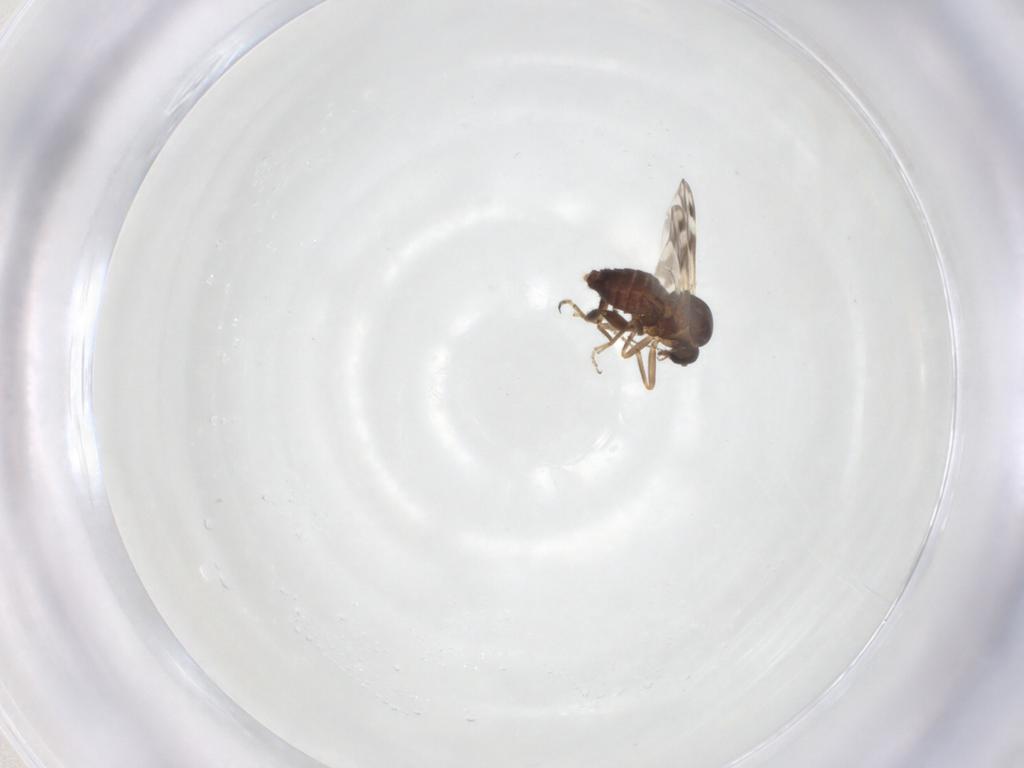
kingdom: Animalia
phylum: Arthropoda
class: Insecta
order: Diptera
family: Ceratopogonidae
